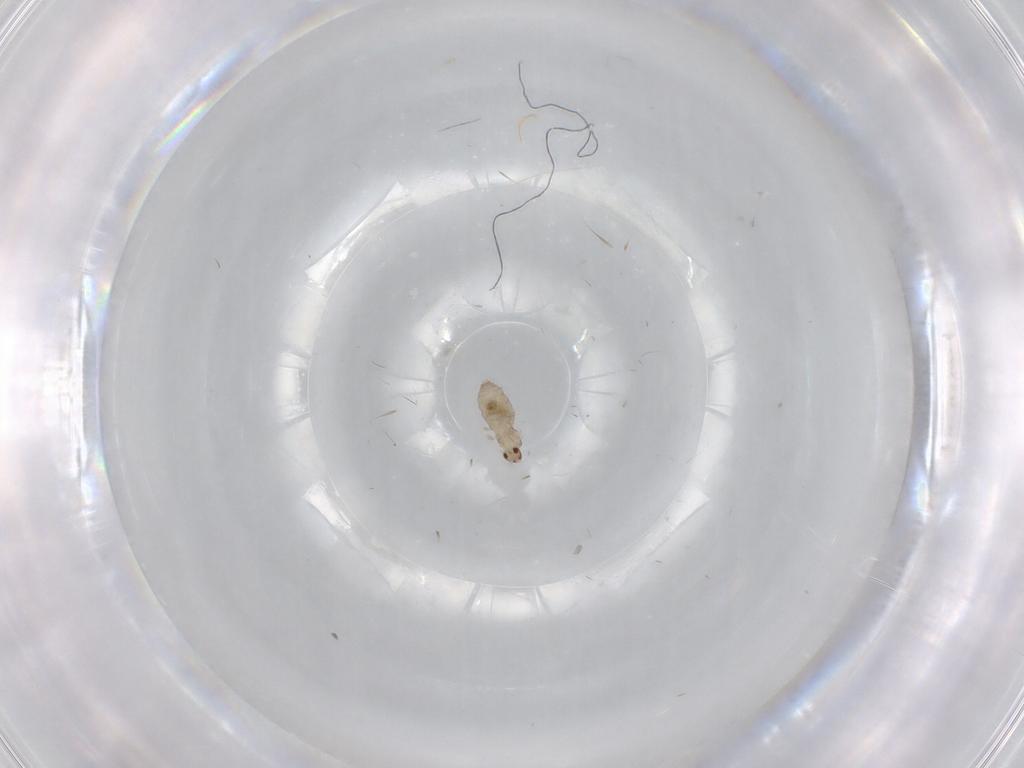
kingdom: Animalia
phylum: Arthropoda
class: Insecta
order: Diptera
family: Cecidomyiidae
